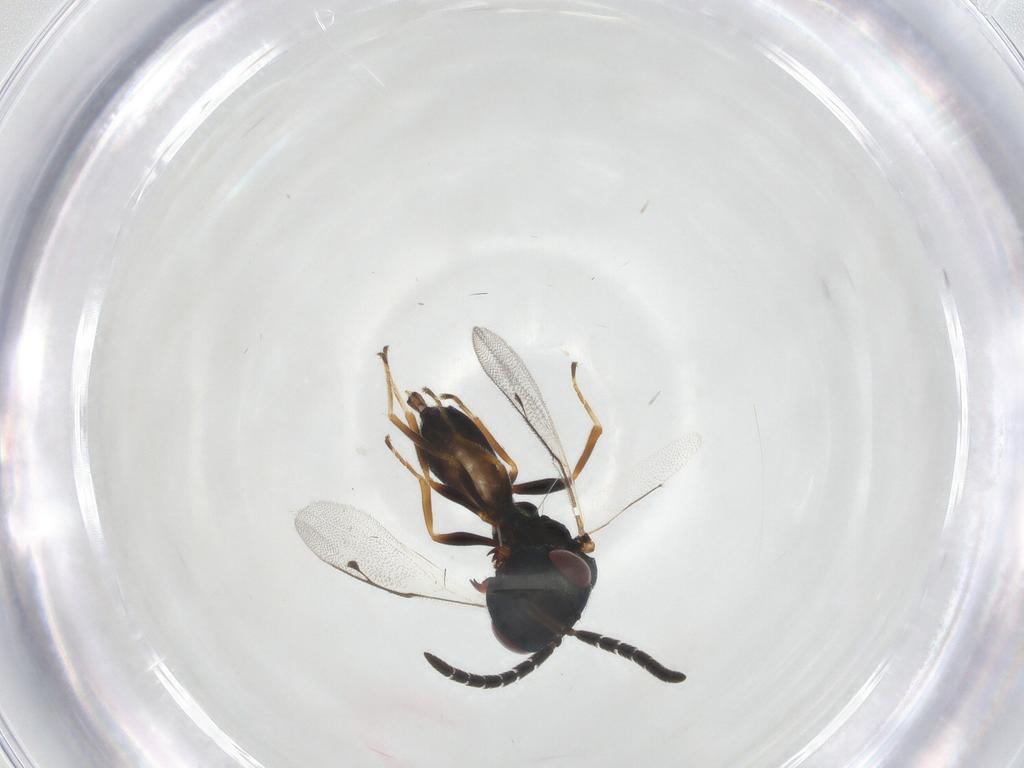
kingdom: Animalia
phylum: Arthropoda
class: Insecta
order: Hymenoptera
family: Agaonidae
